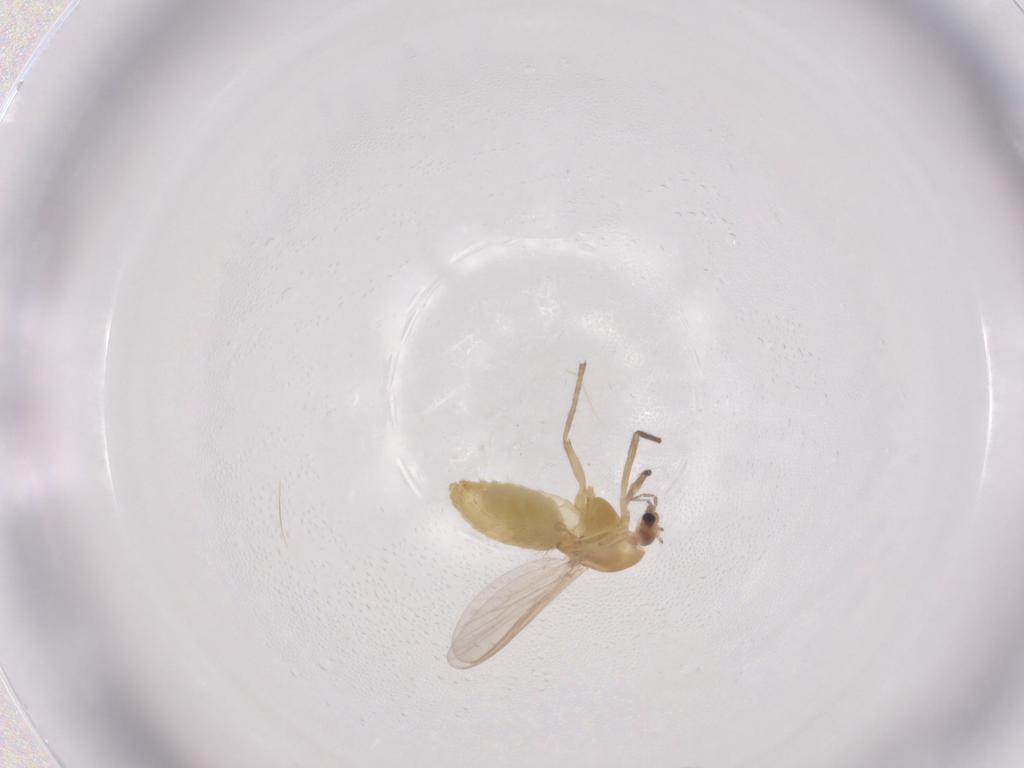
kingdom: Animalia
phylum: Arthropoda
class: Insecta
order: Diptera
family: Chironomidae
